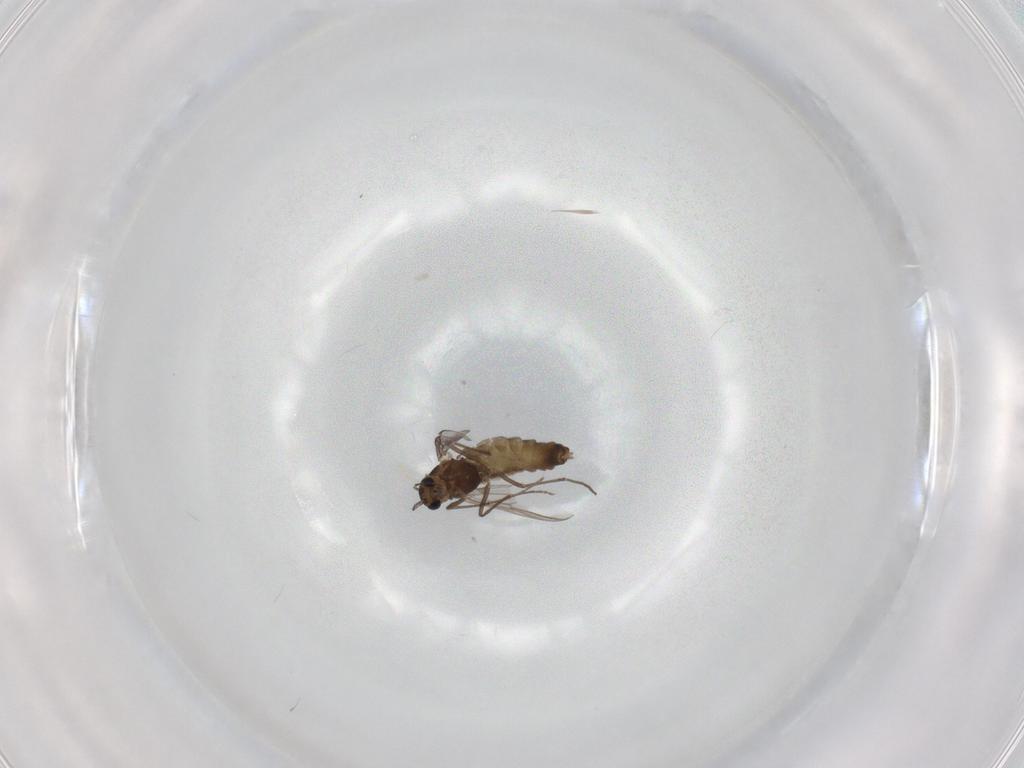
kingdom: Animalia
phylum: Arthropoda
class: Insecta
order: Diptera
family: Chironomidae
